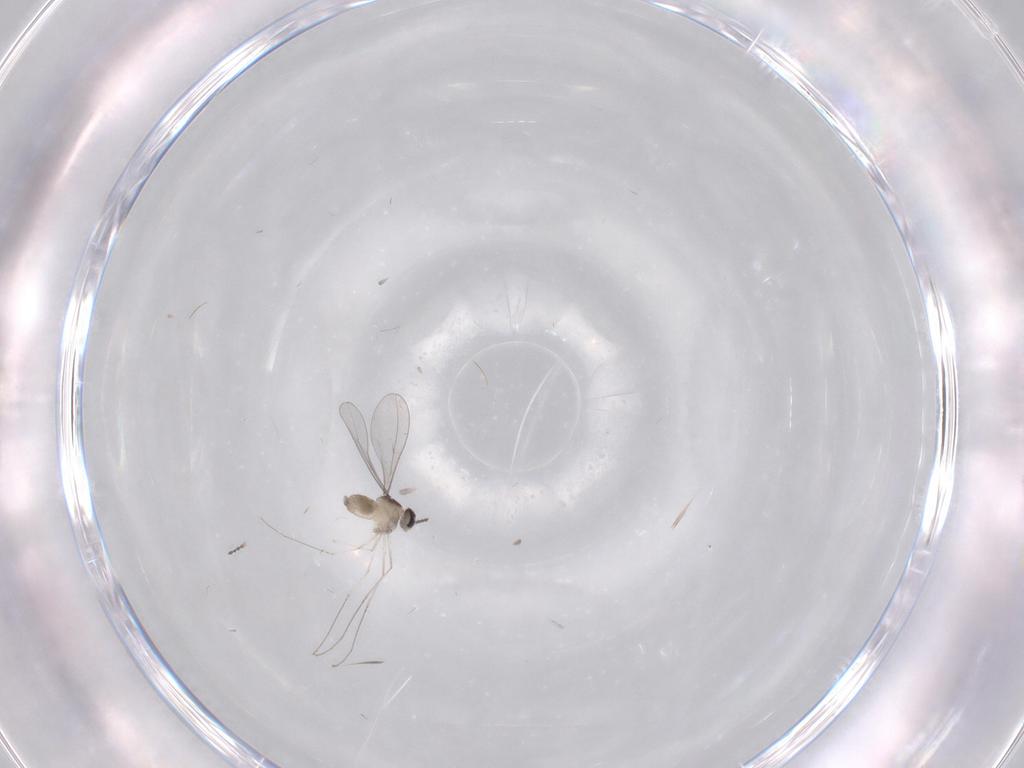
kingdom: Animalia
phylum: Arthropoda
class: Insecta
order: Diptera
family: Cecidomyiidae
